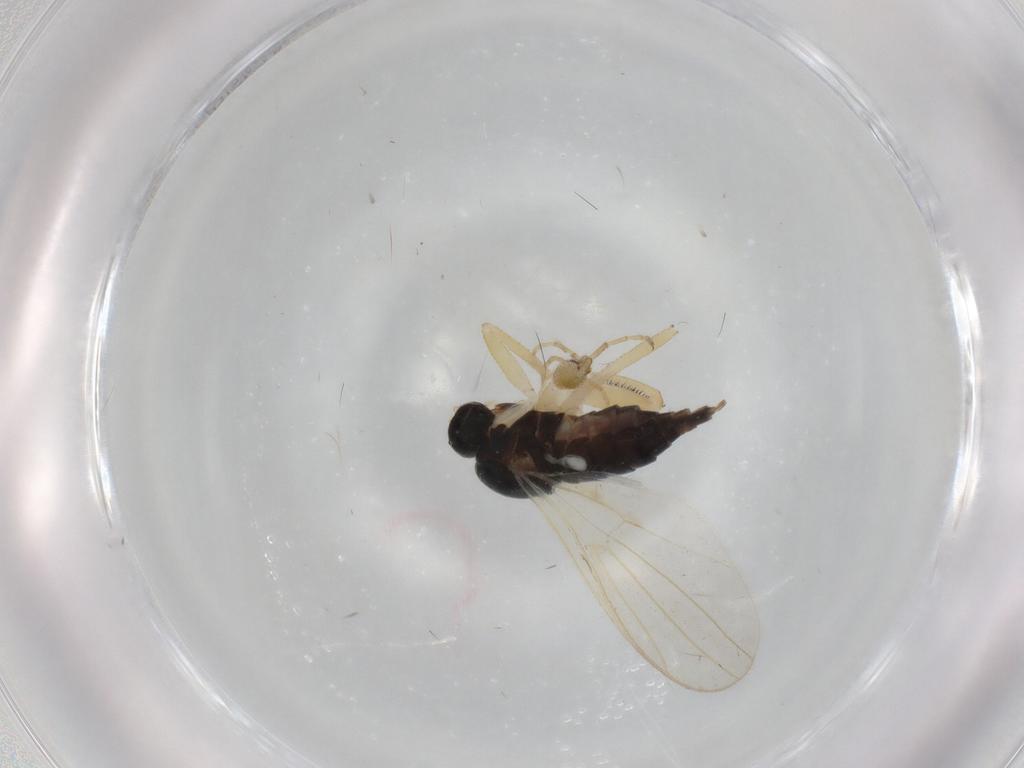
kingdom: Animalia
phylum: Arthropoda
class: Insecta
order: Diptera
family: Hybotidae
